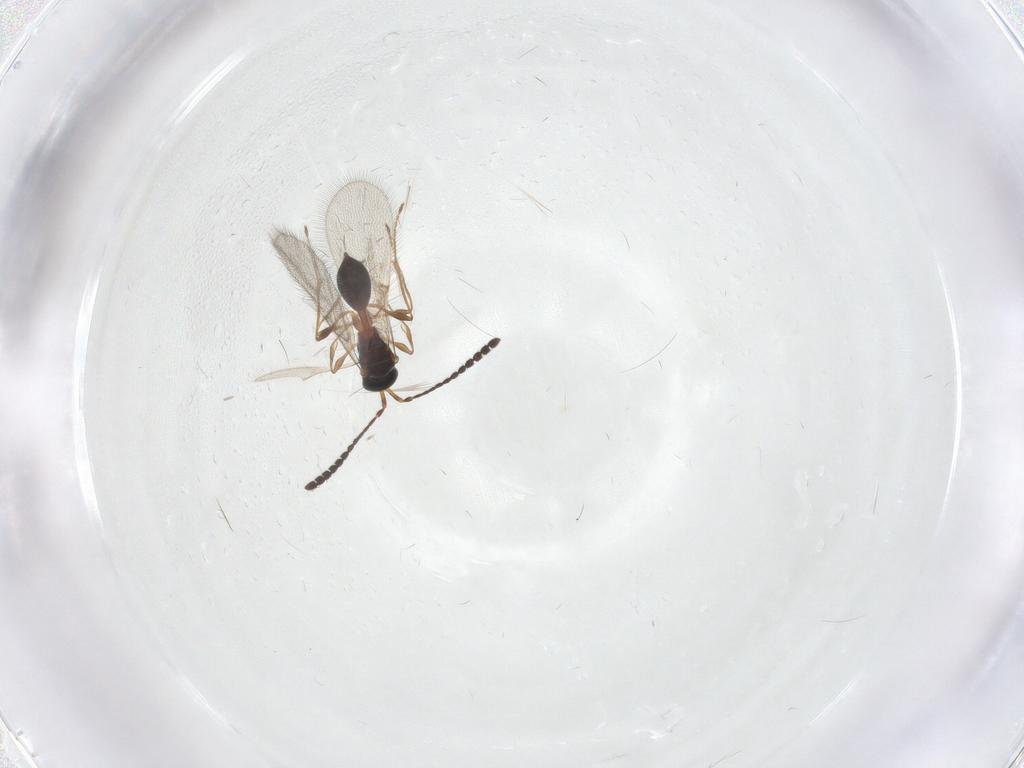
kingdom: Animalia
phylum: Arthropoda
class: Insecta
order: Hymenoptera
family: Diapriidae
